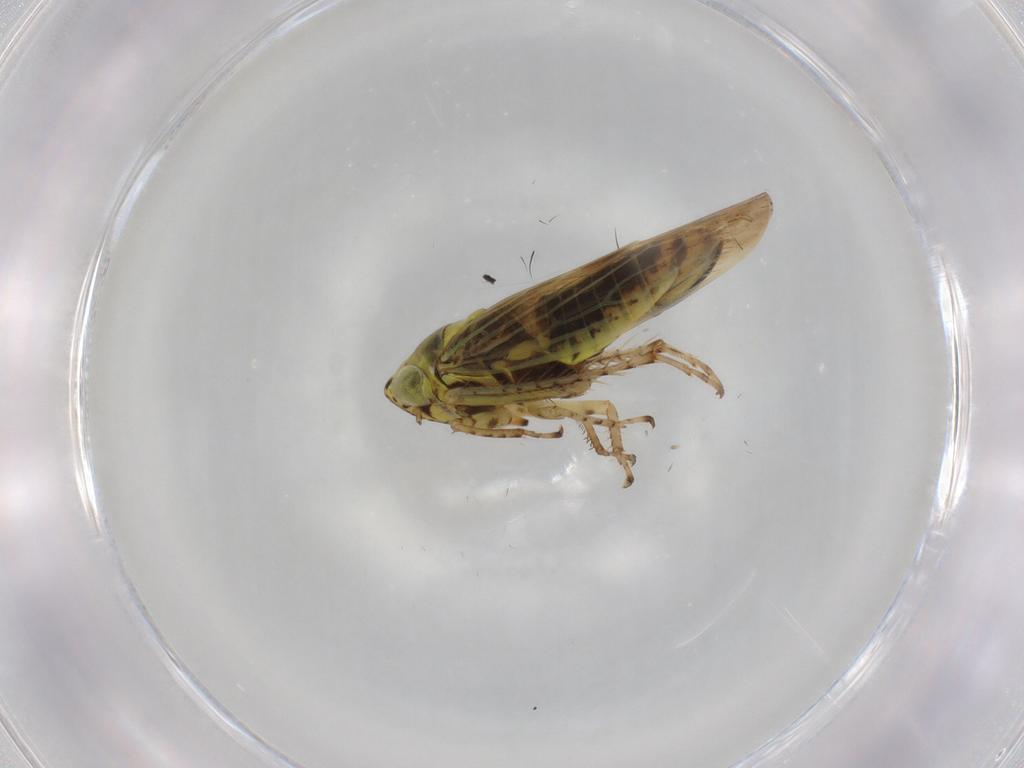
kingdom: Animalia
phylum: Arthropoda
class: Insecta
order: Hemiptera
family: Cicadellidae
